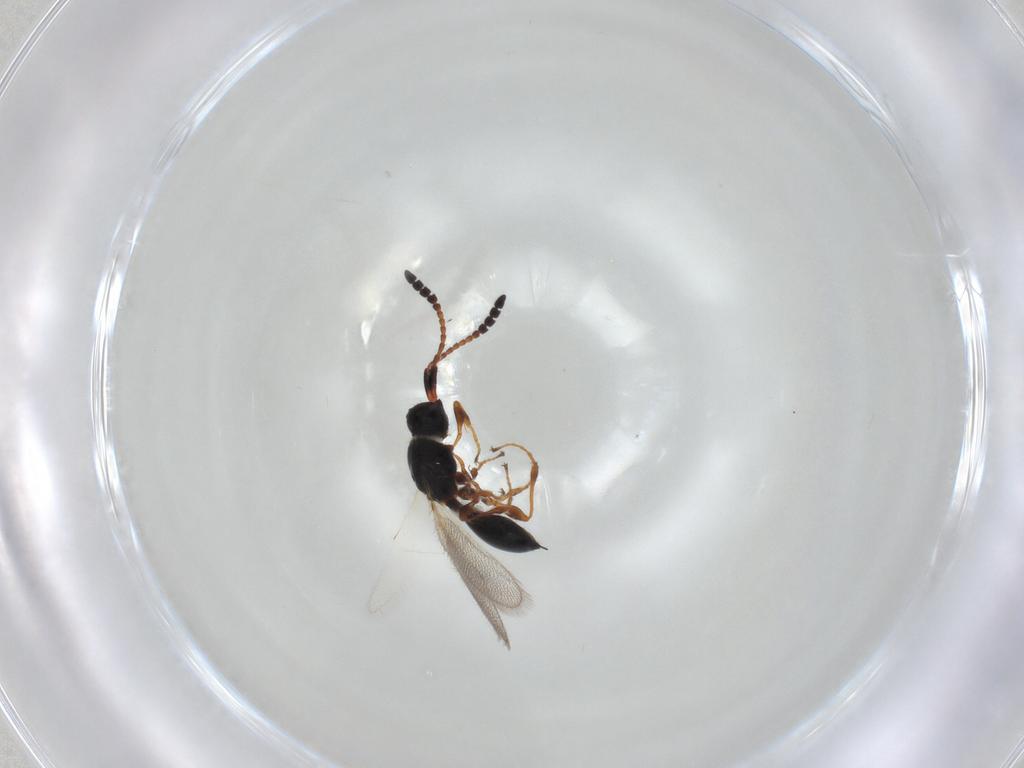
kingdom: Animalia
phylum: Arthropoda
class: Insecta
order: Hymenoptera
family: Diapriidae
